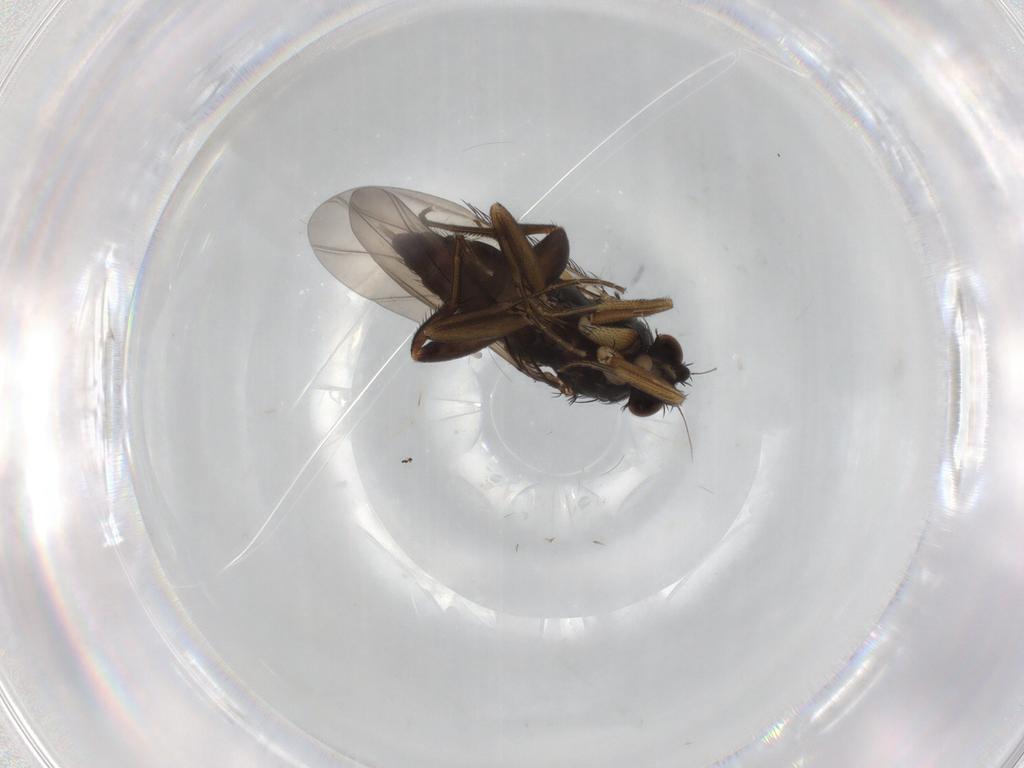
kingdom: Animalia
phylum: Arthropoda
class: Insecta
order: Diptera
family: Phoridae
